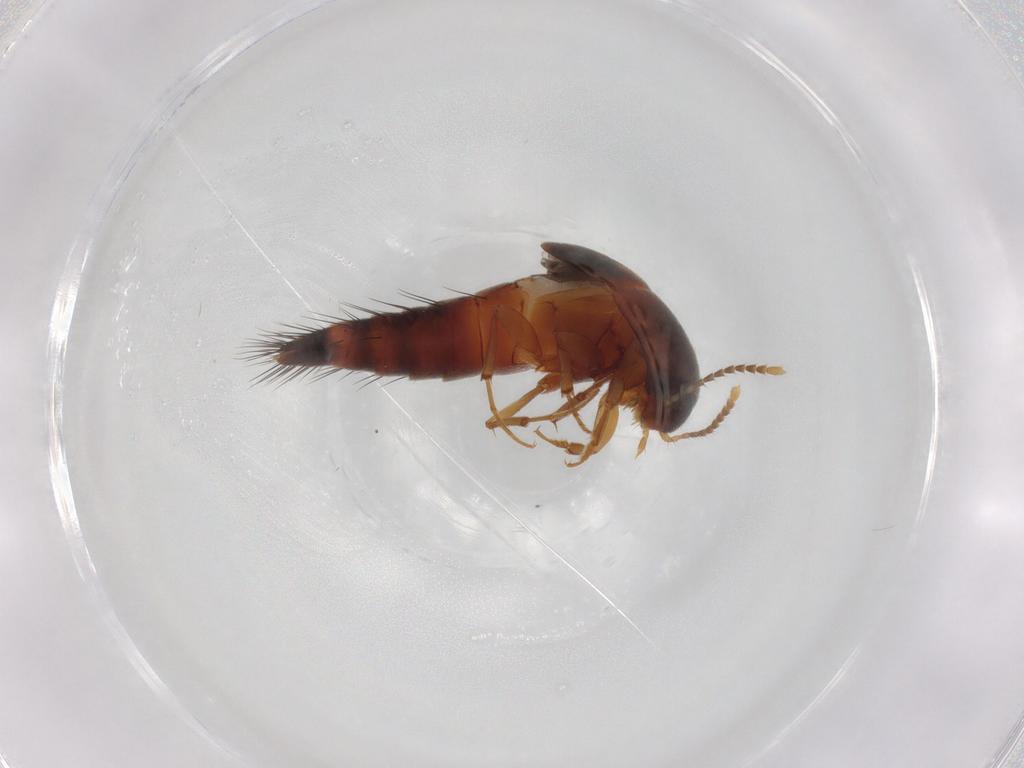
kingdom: Animalia
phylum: Arthropoda
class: Insecta
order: Coleoptera
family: Staphylinidae
